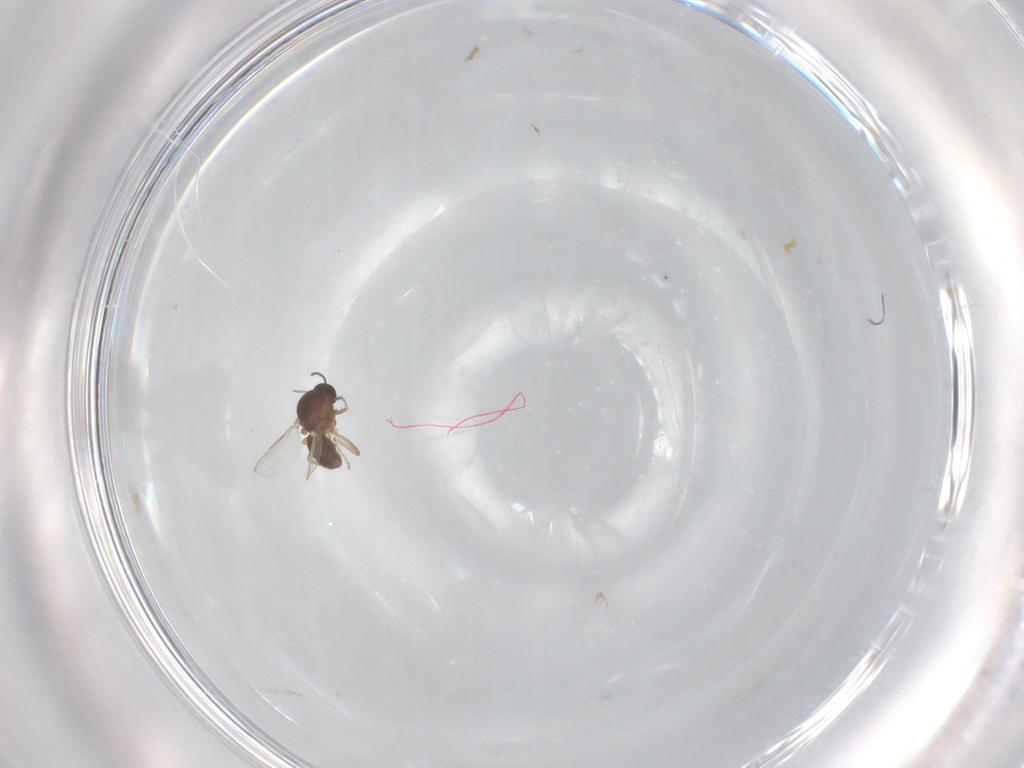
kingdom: Animalia
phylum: Arthropoda
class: Insecta
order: Diptera
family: Ceratopogonidae
